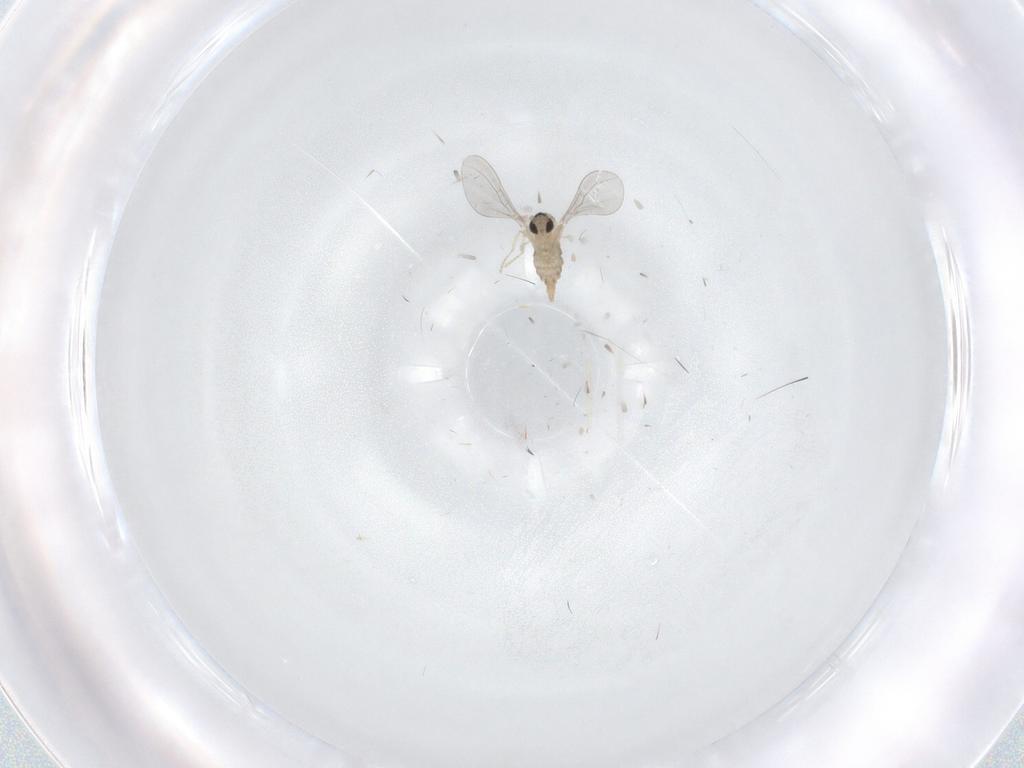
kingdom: Animalia
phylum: Arthropoda
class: Insecta
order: Diptera
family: Cecidomyiidae
